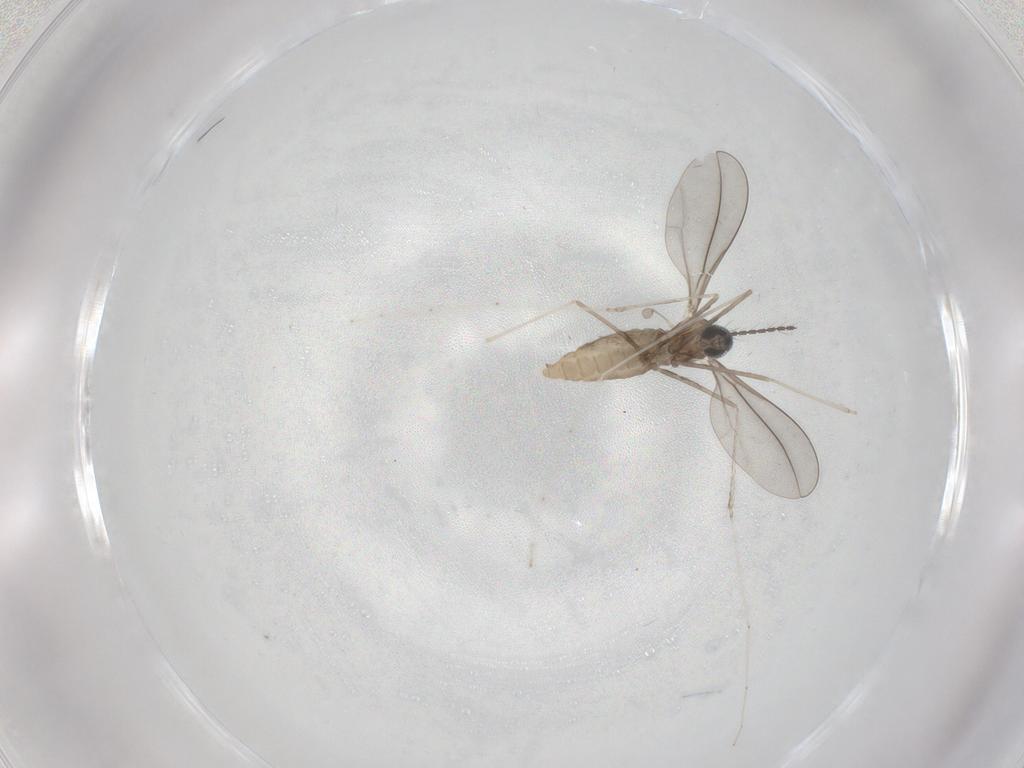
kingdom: Animalia
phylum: Arthropoda
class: Insecta
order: Diptera
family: Cecidomyiidae
